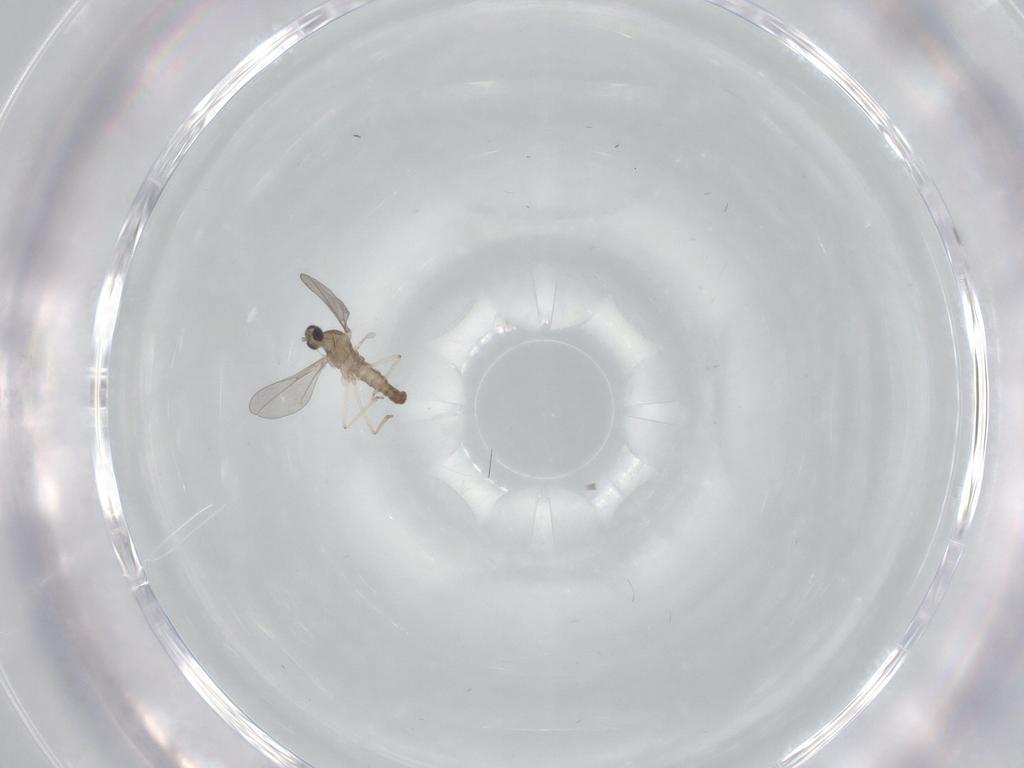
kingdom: Animalia
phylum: Arthropoda
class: Insecta
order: Diptera
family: Cecidomyiidae
